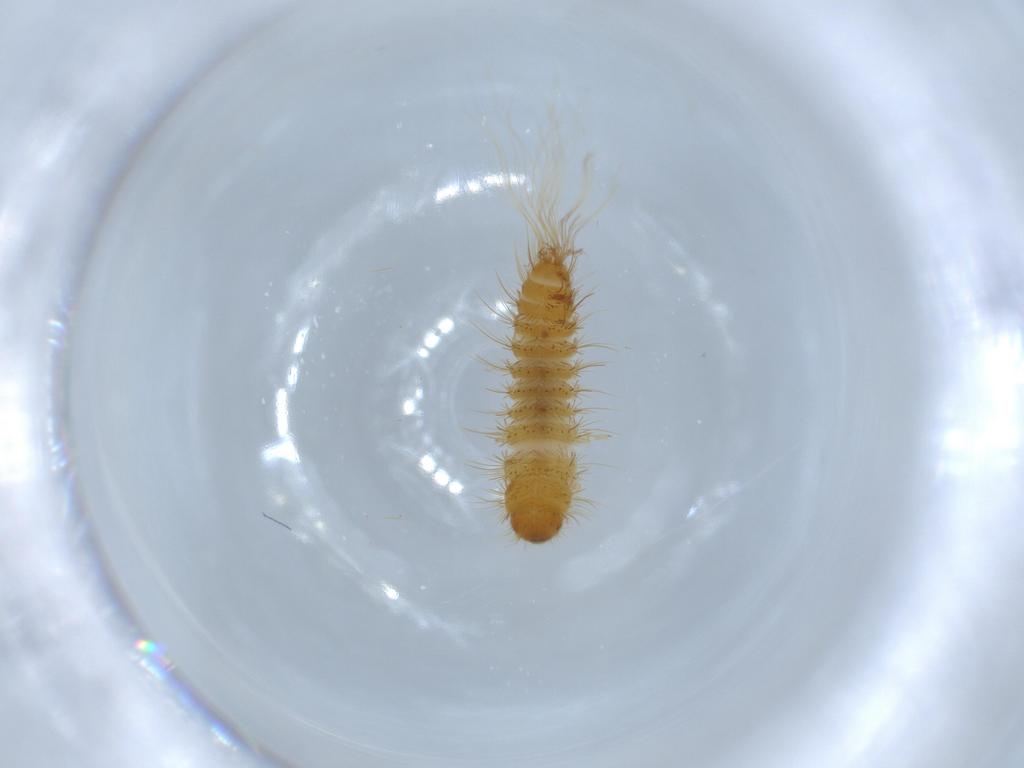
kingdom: Animalia
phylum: Arthropoda
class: Insecta
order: Coleoptera
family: Dermestidae
